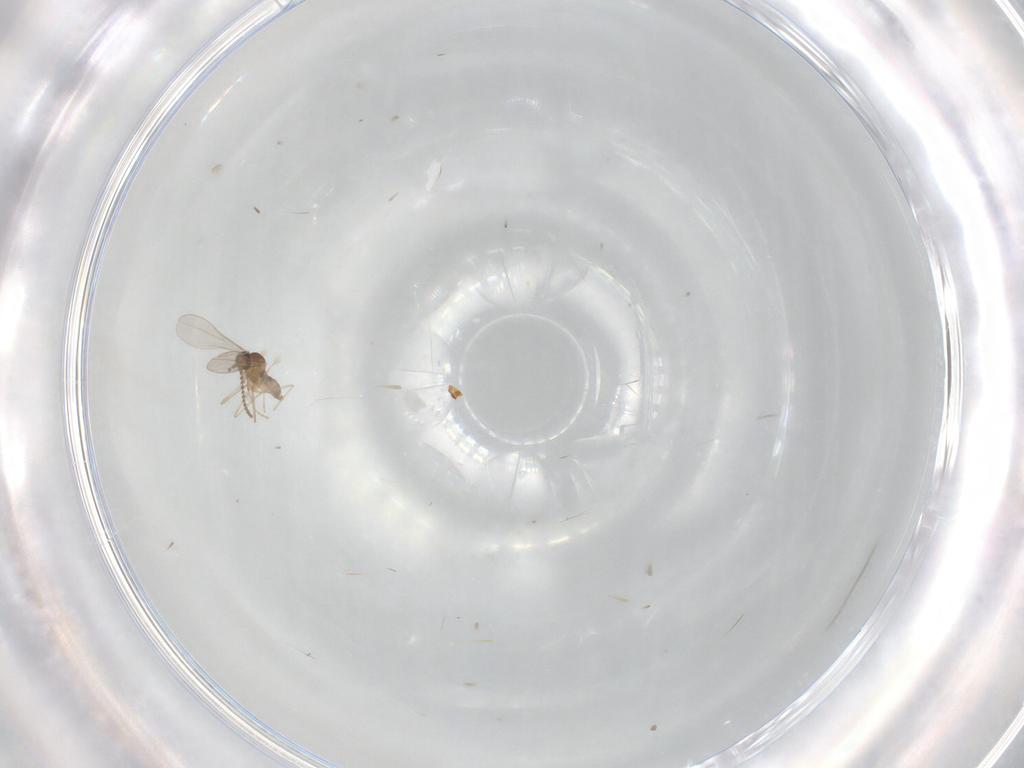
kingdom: Animalia
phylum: Arthropoda
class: Insecta
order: Diptera
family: Cecidomyiidae
